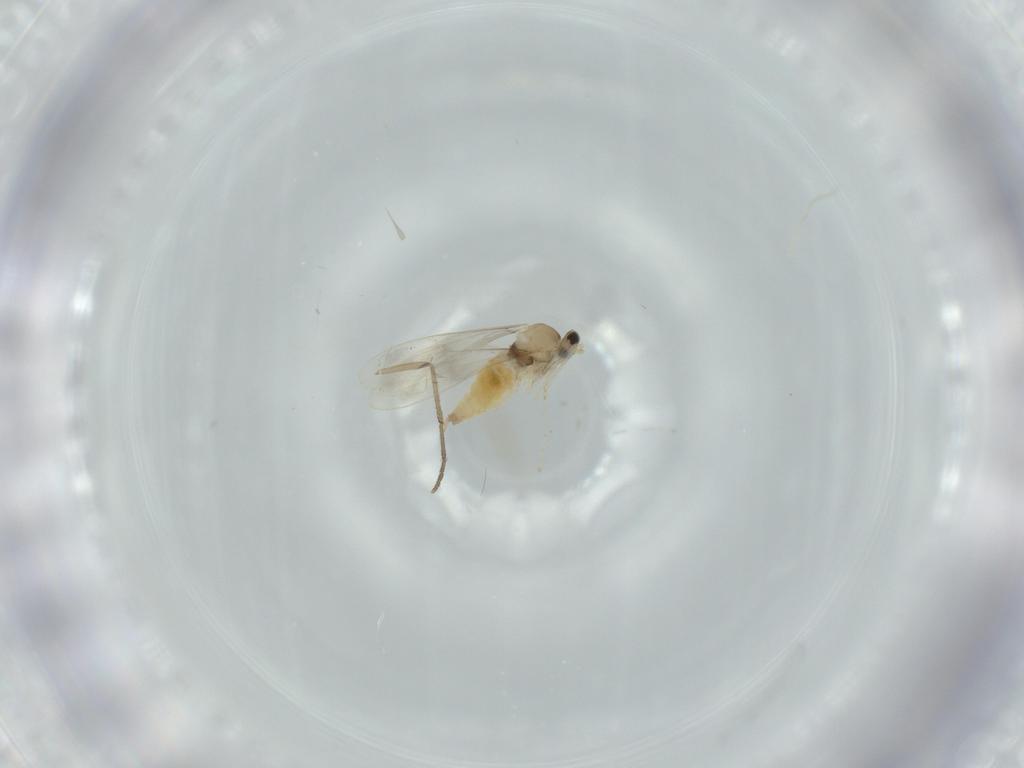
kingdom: Animalia
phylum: Arthropoda
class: Insecta
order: Diptera
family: Cecidomyiidae
